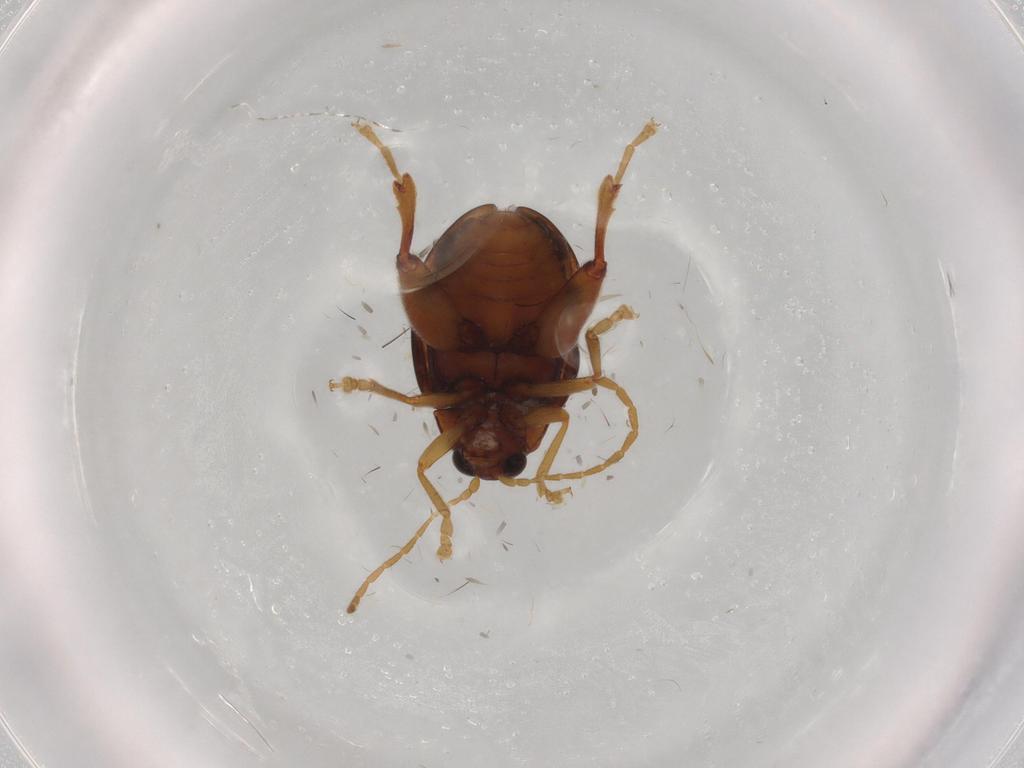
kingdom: Animalia
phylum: Arthropoda
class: Insecta
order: Coleoptera
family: Chrysomelidae
